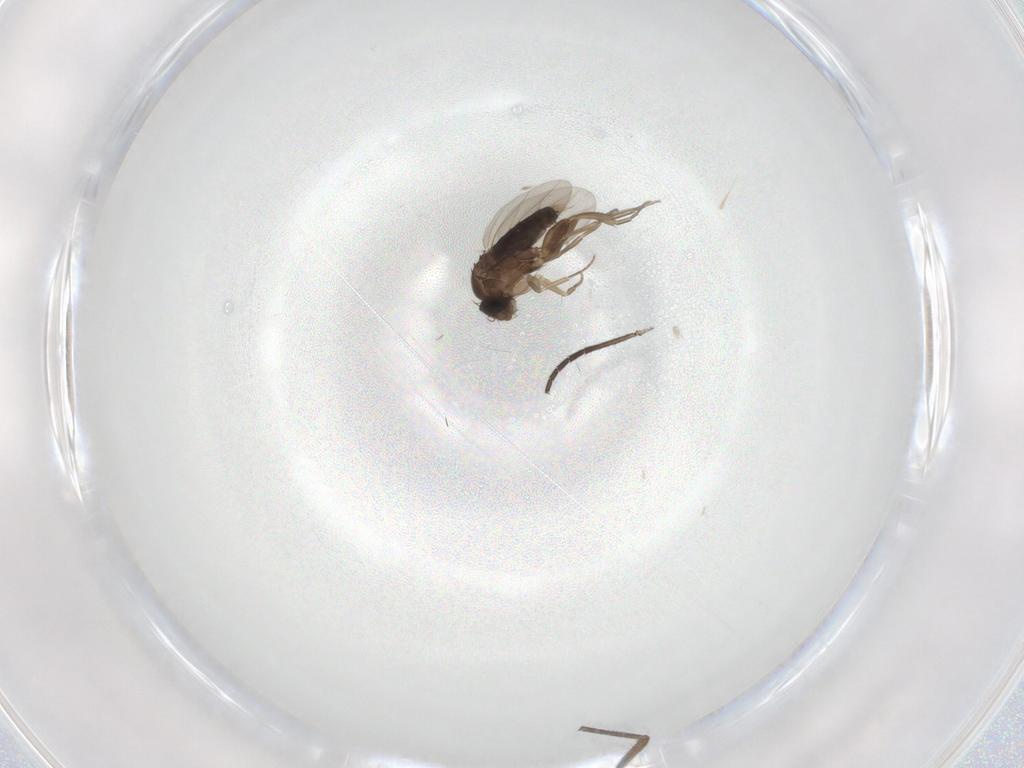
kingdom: Animalia
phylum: Arthropoda
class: Insecta
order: Diptera
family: Sciaridae
